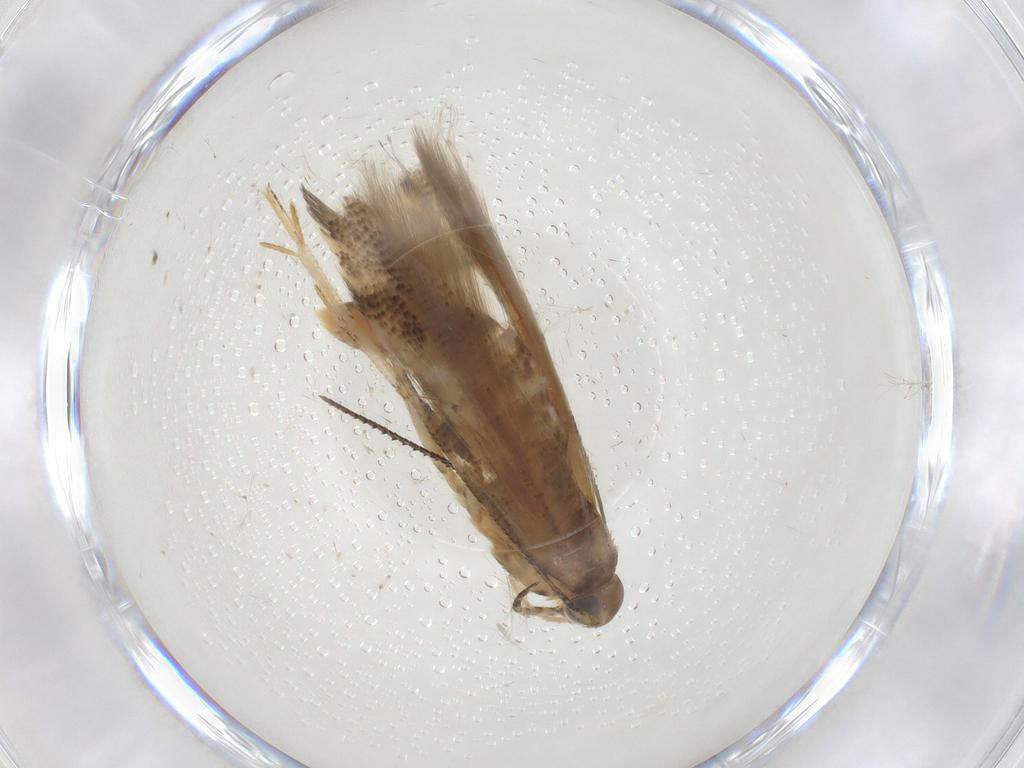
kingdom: Animalia
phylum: Arthropoda
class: Insecta
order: Lepidoptera
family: Gelechiidae
